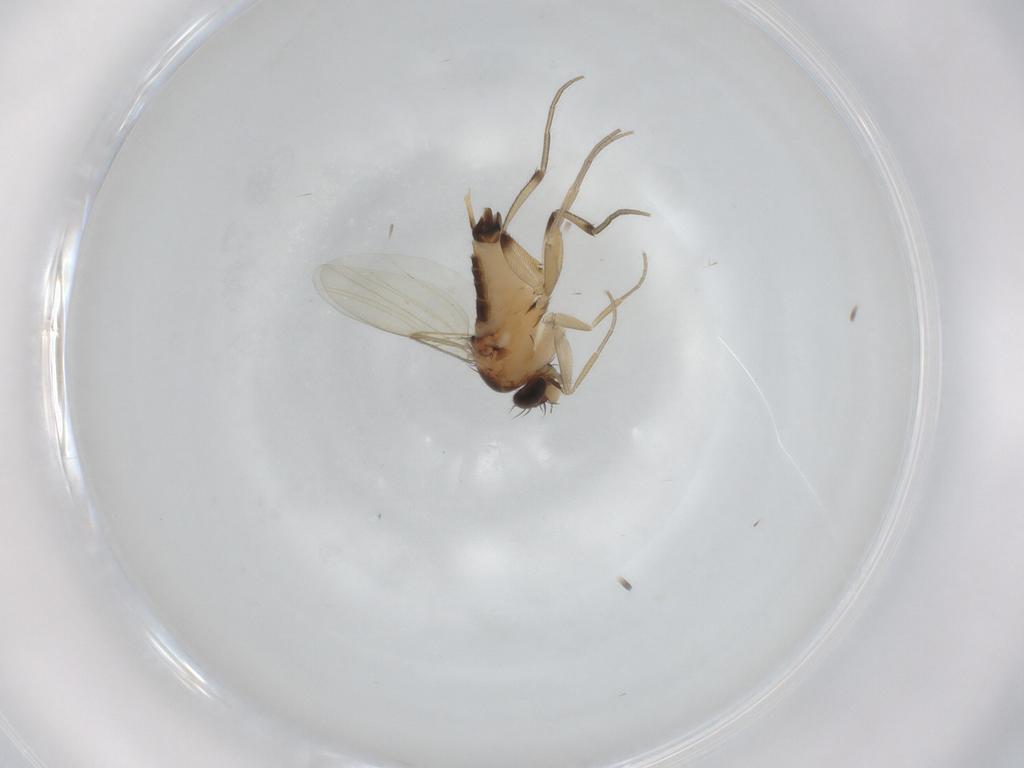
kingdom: Animalia
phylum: Arthropoda
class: Insecta
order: Diptera
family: Phoridae
